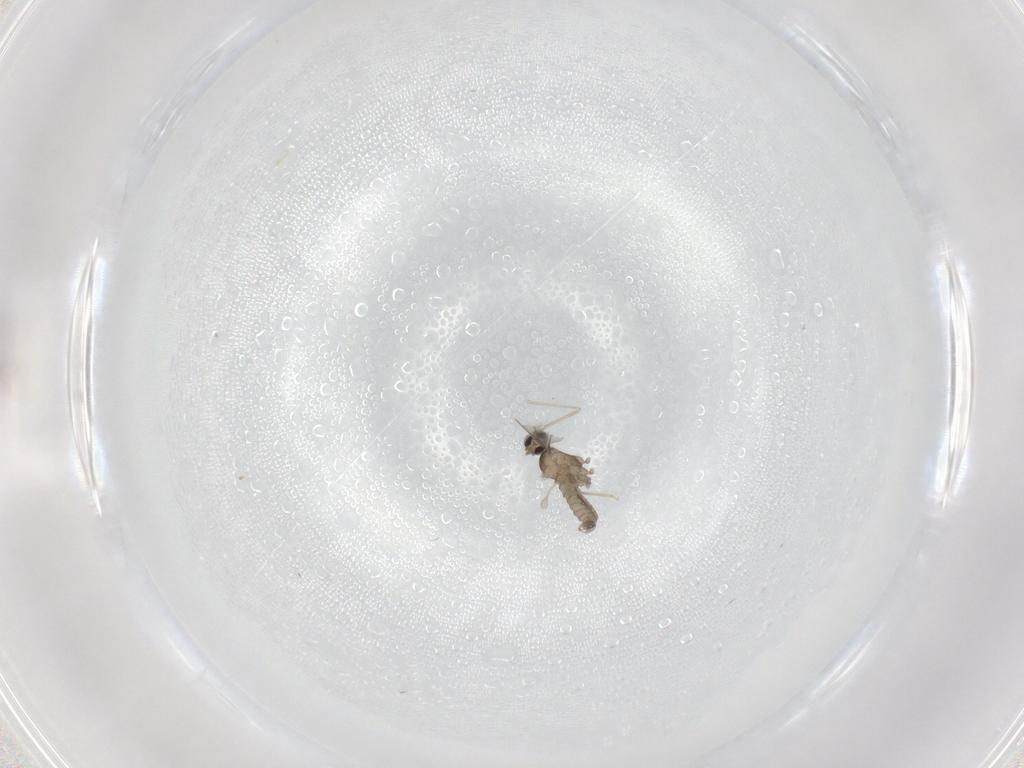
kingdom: Animalia
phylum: Arthropoda
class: Insecta
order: Diptera
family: Cecidomyiidae
